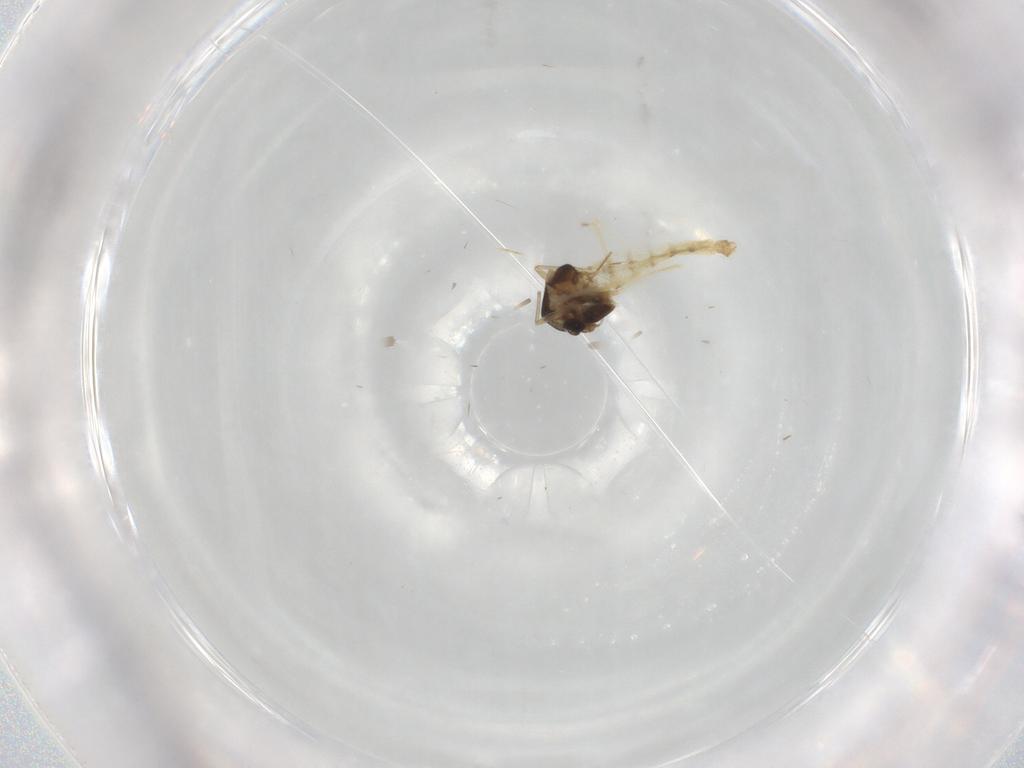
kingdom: Animalia
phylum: Arthropoda
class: Insecta
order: Diptera
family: Chironomidae
